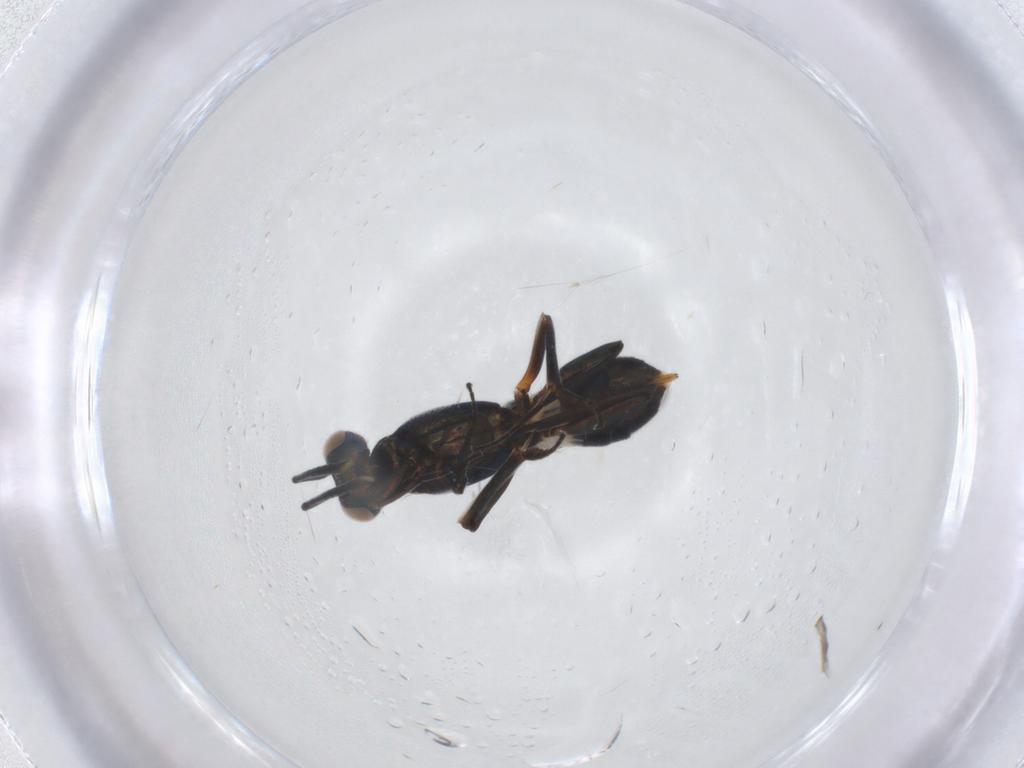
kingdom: Animalia
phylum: Arthropoda
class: Insecta
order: Hymenoptera
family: Eupelmidae
